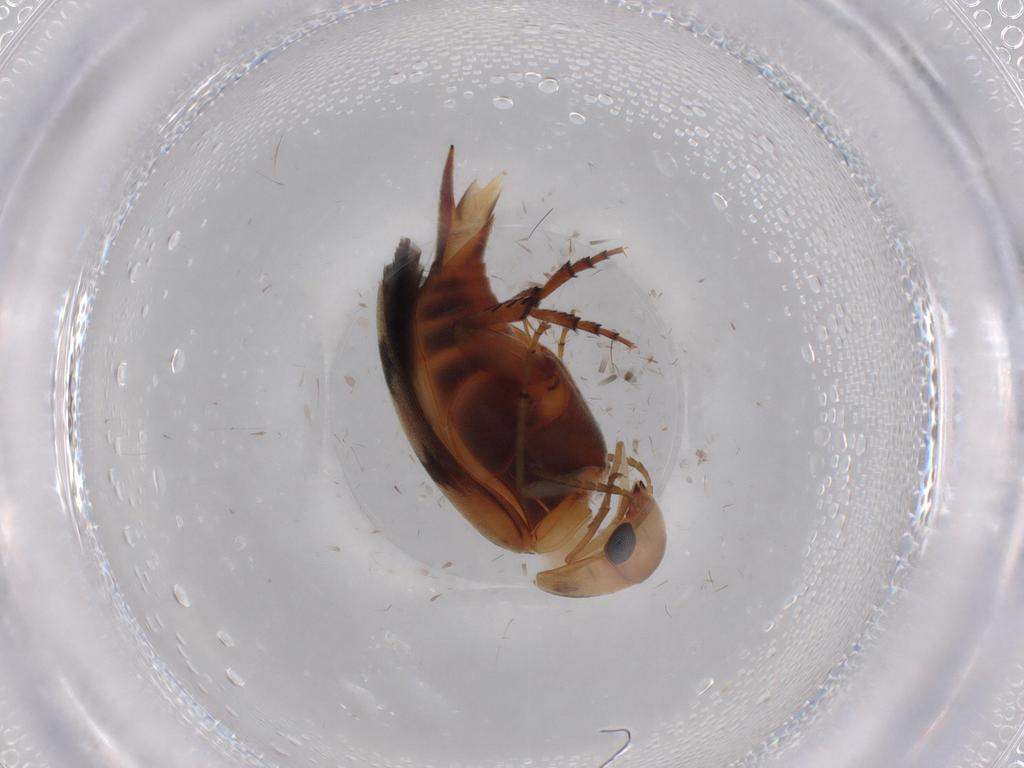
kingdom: Animalia
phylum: Arthropoda
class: Insecta
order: Coleoptera
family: Mordellidae
